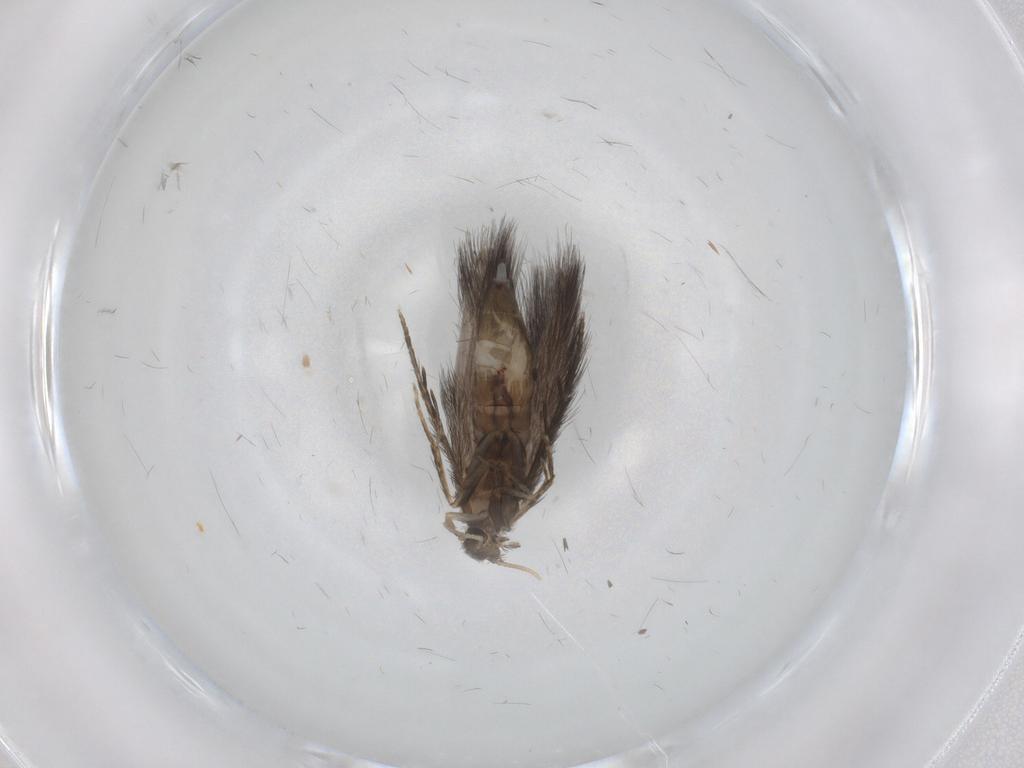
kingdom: Animalia
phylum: Arthropoda
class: Insecta
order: Trichoptera
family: Hydroptilidae
